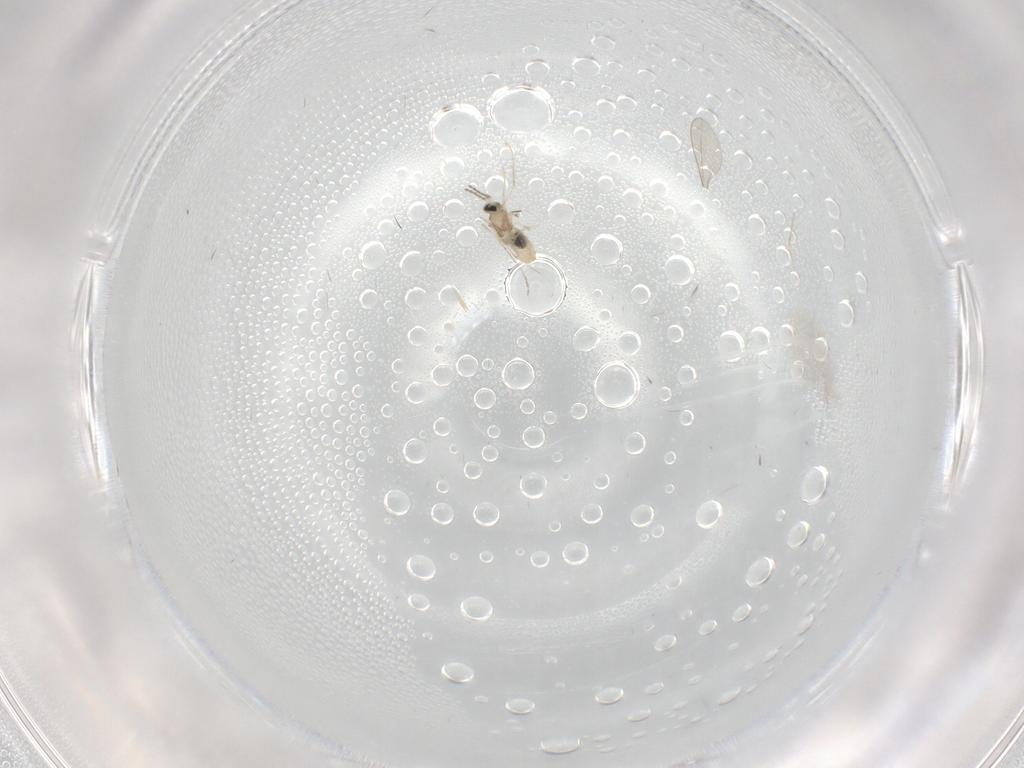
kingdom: Animalia
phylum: Arthropoda
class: Insecta
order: Diptera
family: Cecidomyiidae
